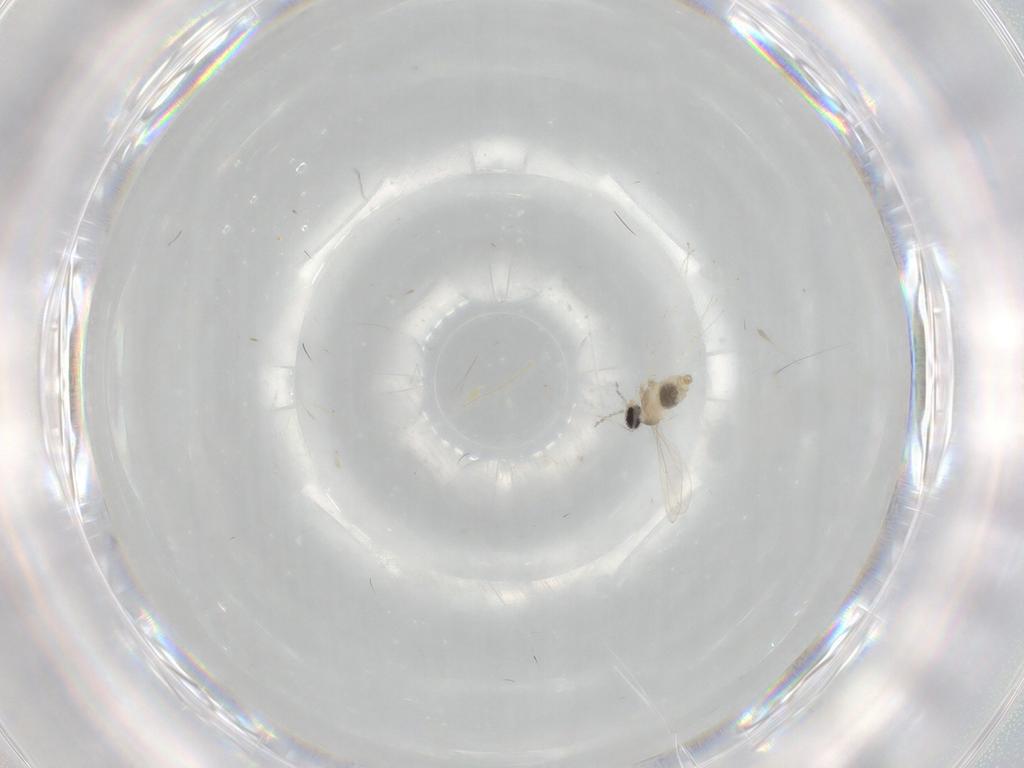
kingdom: Animalia
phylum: Arthropoda
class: Insecta
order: Diptera
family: Cecidomyiidae
